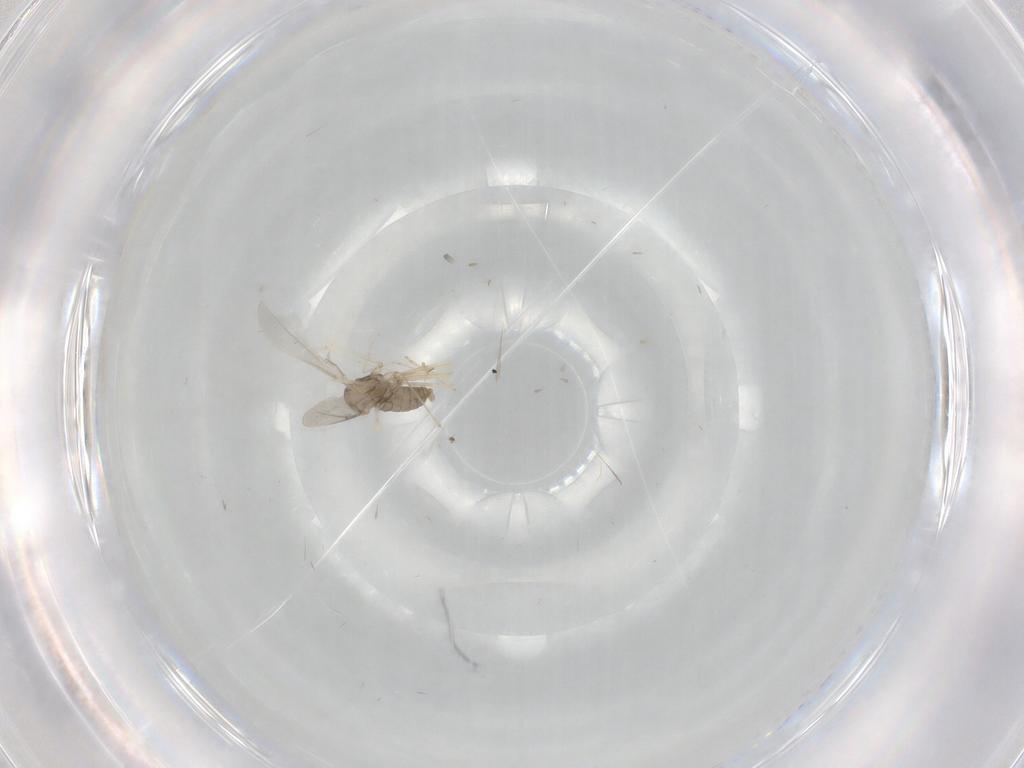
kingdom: Animalia
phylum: Arthropoda
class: Insecta
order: Diptera
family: Cecidomyiidae
